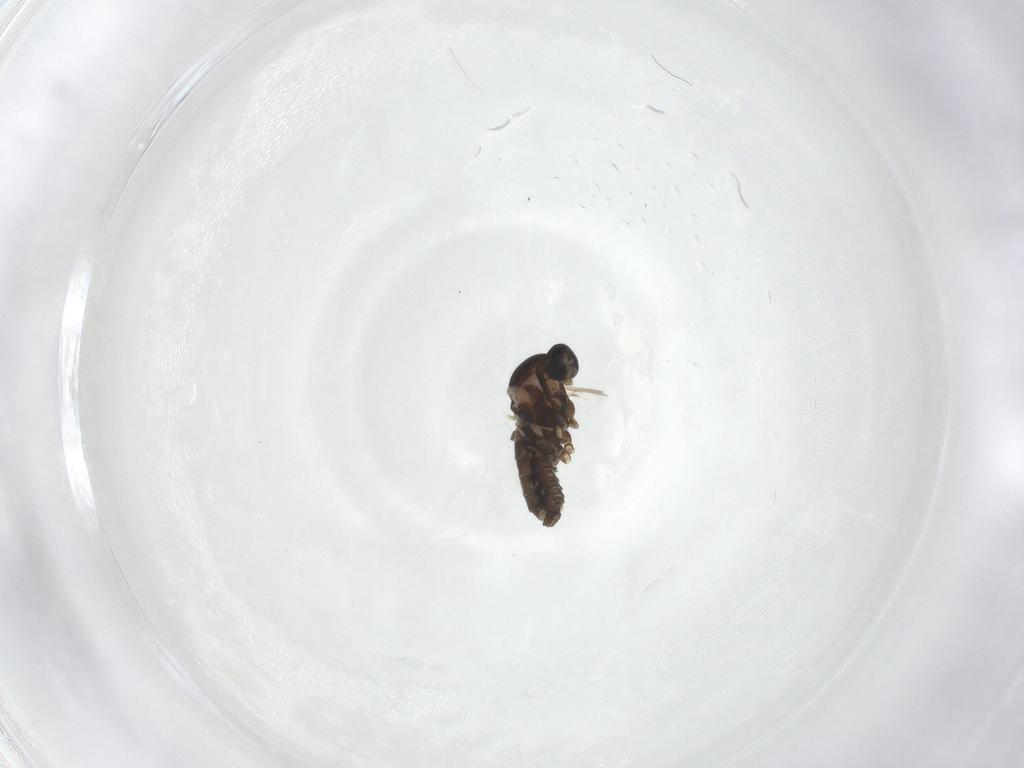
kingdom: Animalia
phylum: Arthropoda
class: Insecta
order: Diptera
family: Cecidomyiidae
